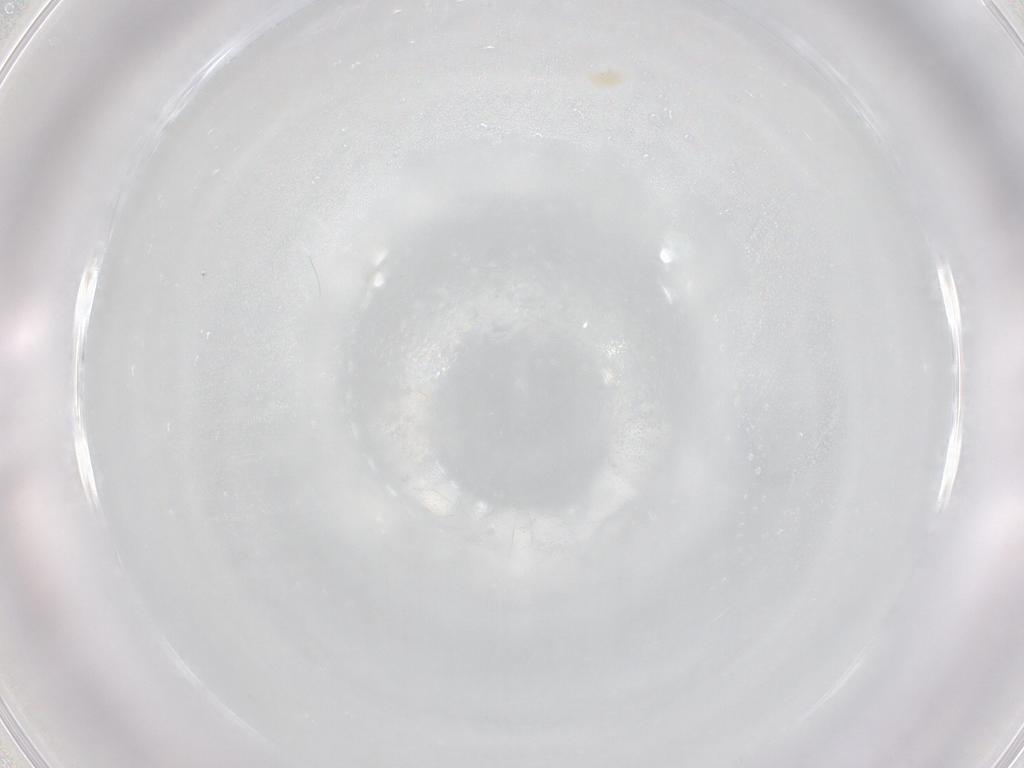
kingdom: Animalia
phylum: Arthropoda
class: Arachnida
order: Trombidiformes
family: Eupodidae
